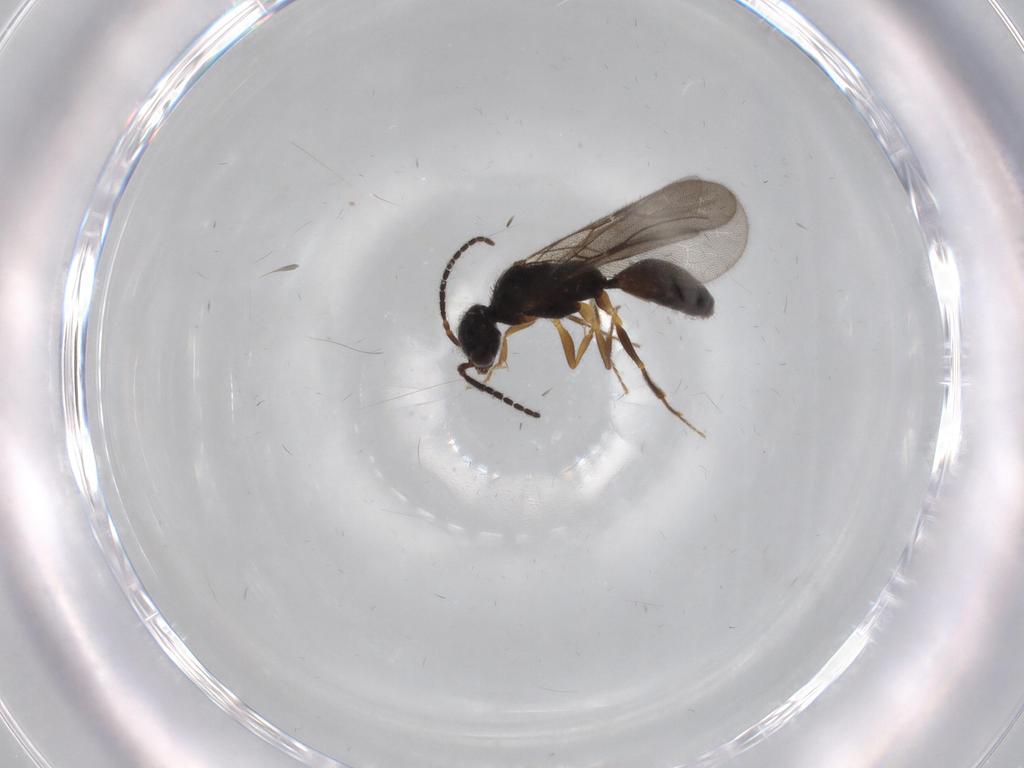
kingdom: Animalia
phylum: Arthropoda
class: Insecta
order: Hymenoptera
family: Bethylidae
